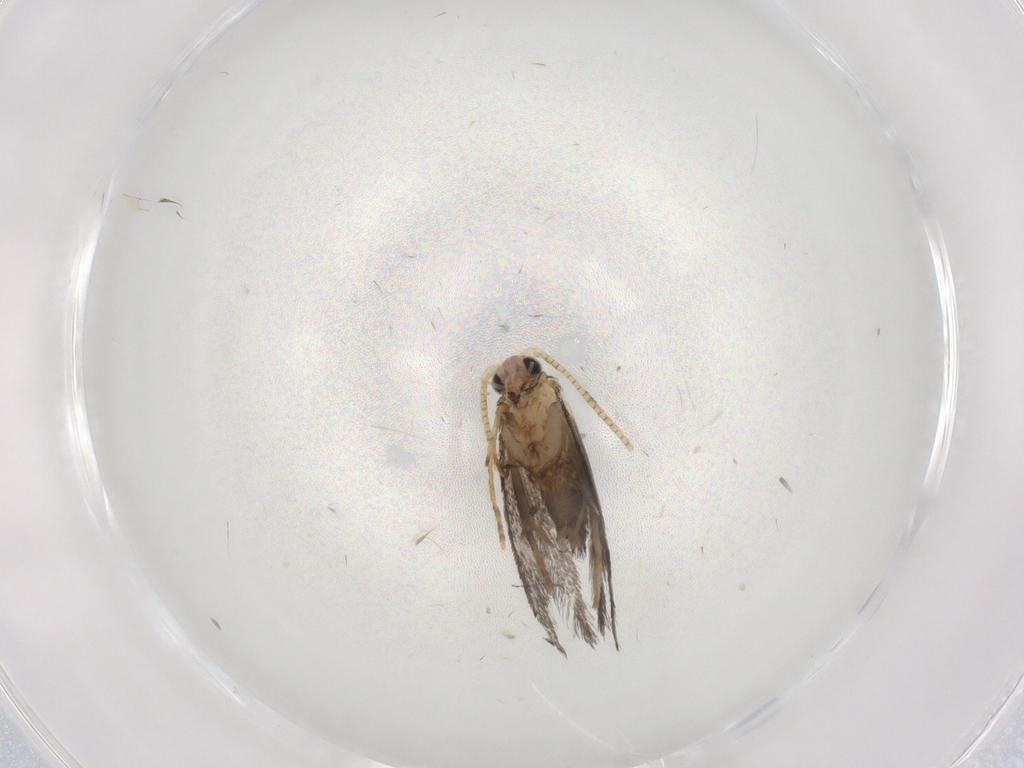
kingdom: Animalia
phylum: Arthropoda
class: Insecta
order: Lepidoptera
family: Tineidae
